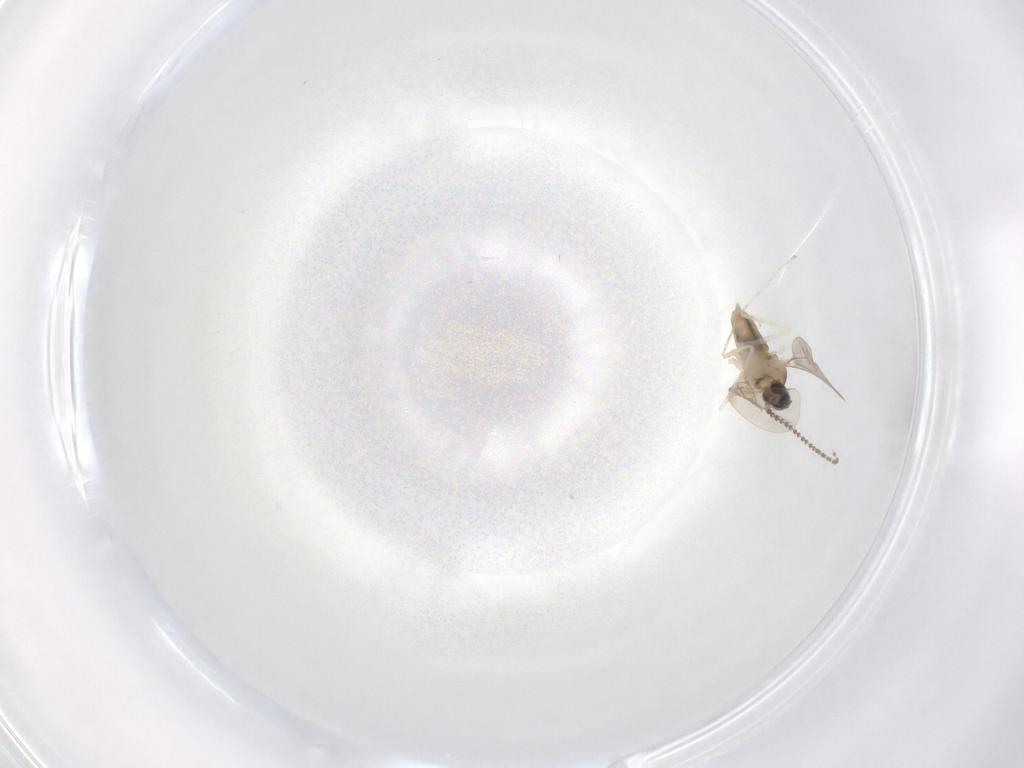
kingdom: Animalia
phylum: Arthropoda
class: Insecta
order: Diptera
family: Cecidomyiidae
